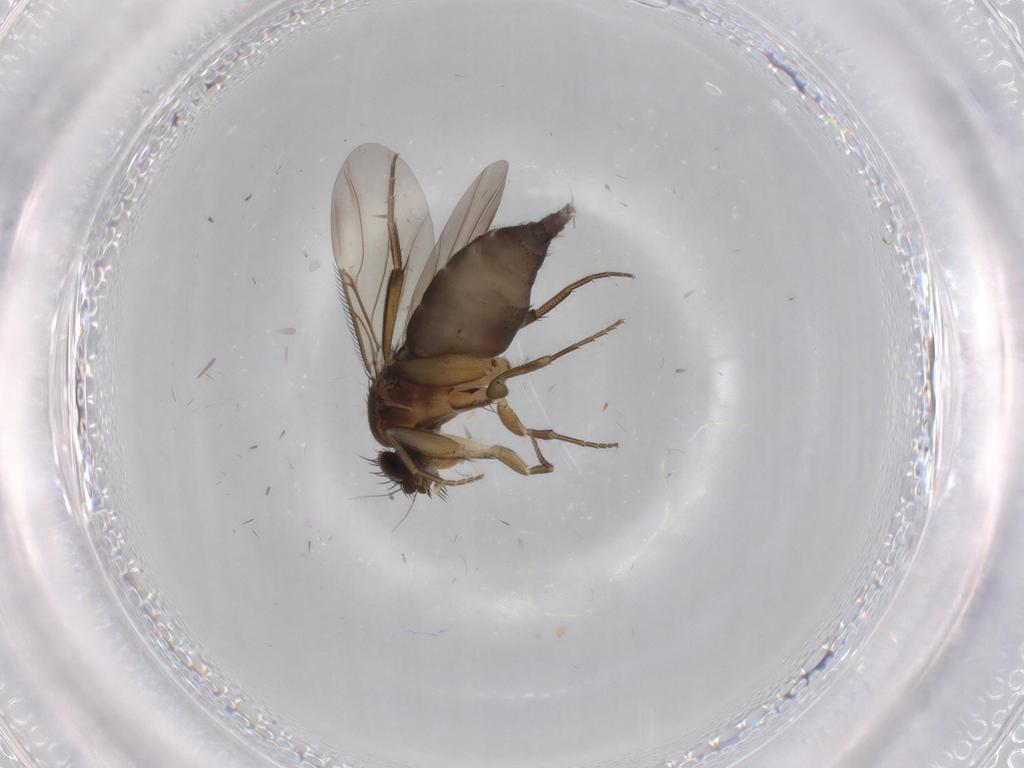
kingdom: Animalia
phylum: Arthropoda
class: Insecta
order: Diptera
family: Phoridae
